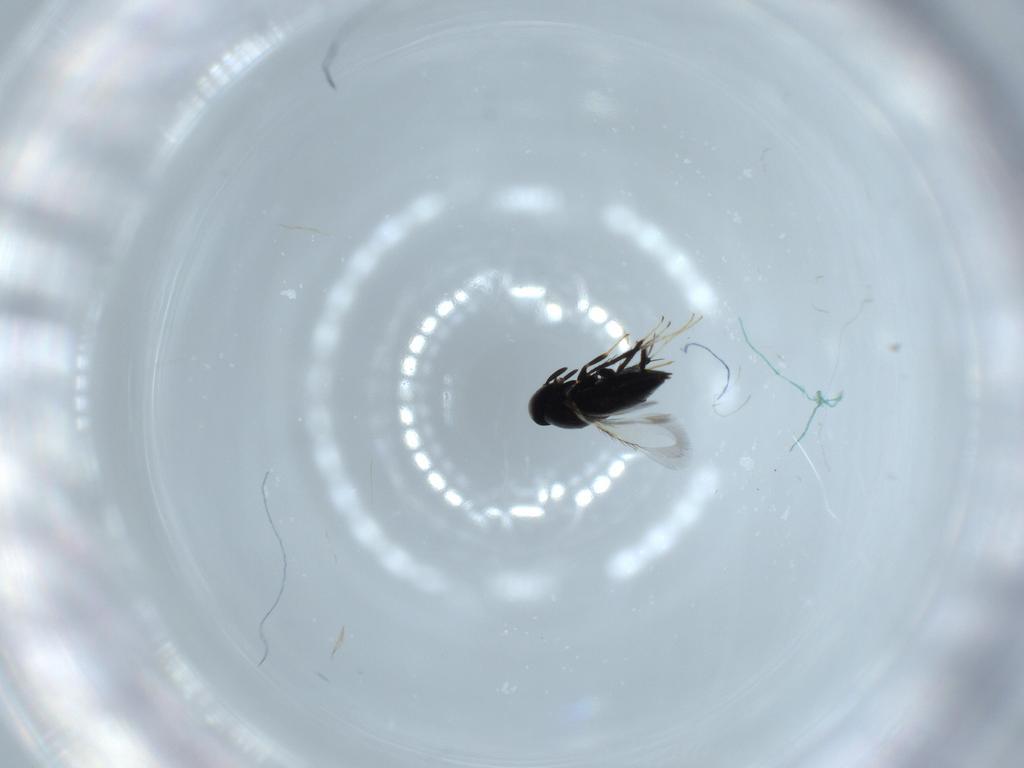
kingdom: Animalia
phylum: Arthropoda
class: Insecta
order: Hymenoptera
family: Signiphoridae
